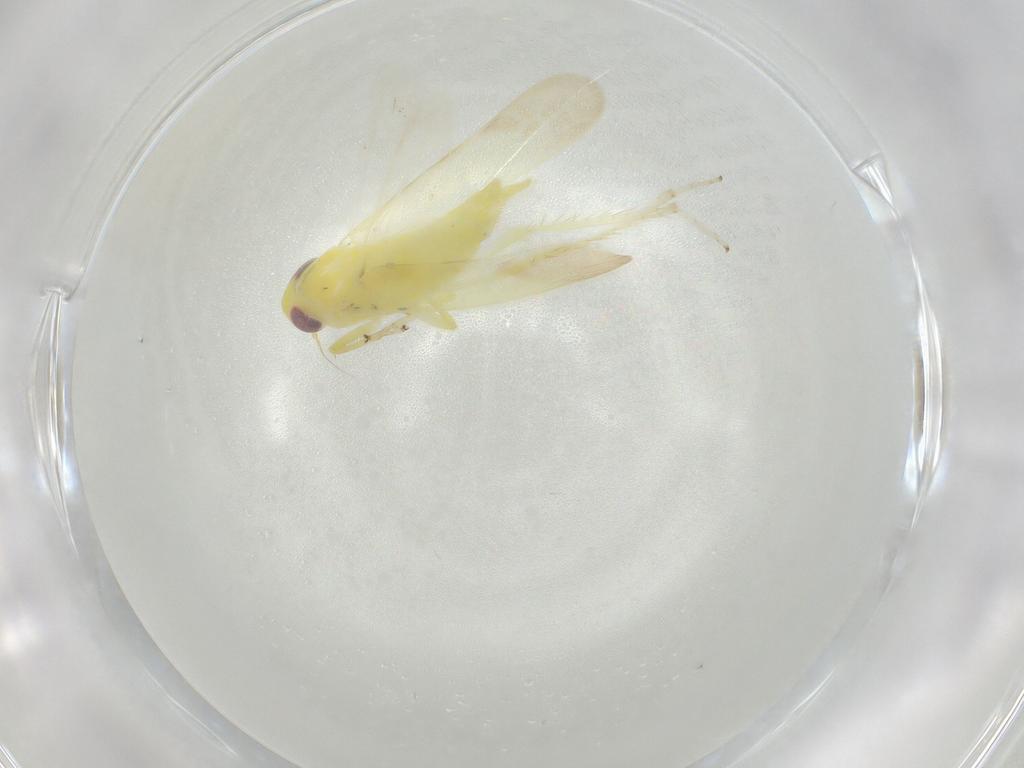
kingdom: Animalia
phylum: Arthropoda
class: Insecta
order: Hemiptera
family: Cicadellidae
